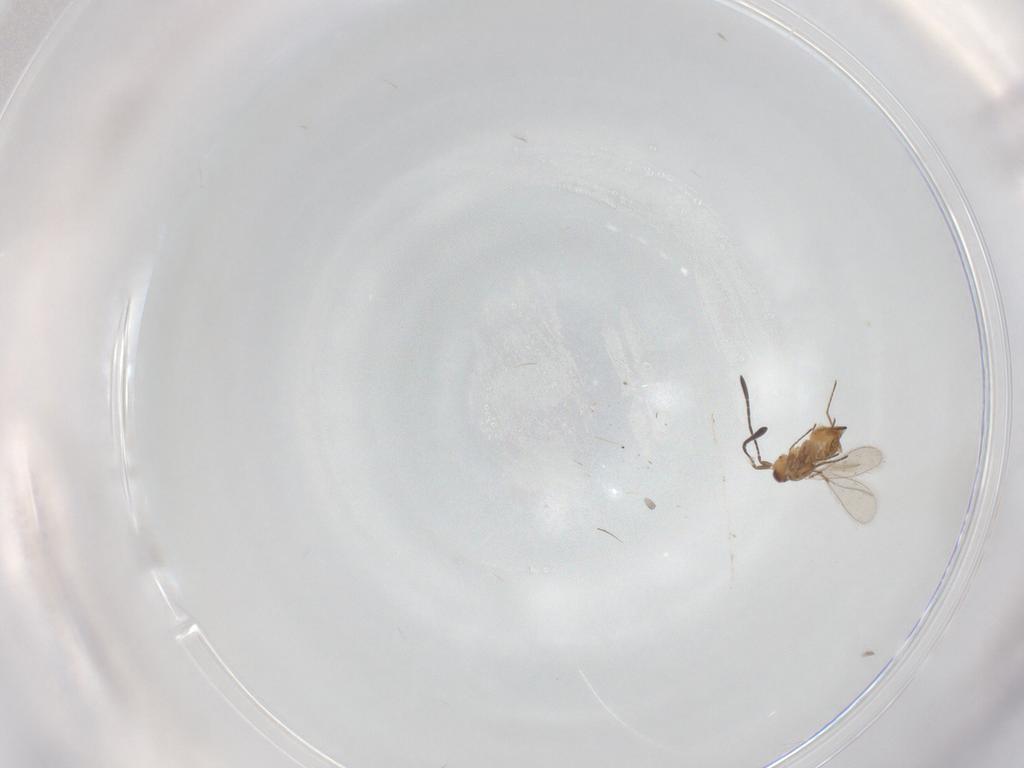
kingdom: Animalia
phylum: Arthropoda
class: Insecta
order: Hymenoptera
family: Mymaridae
